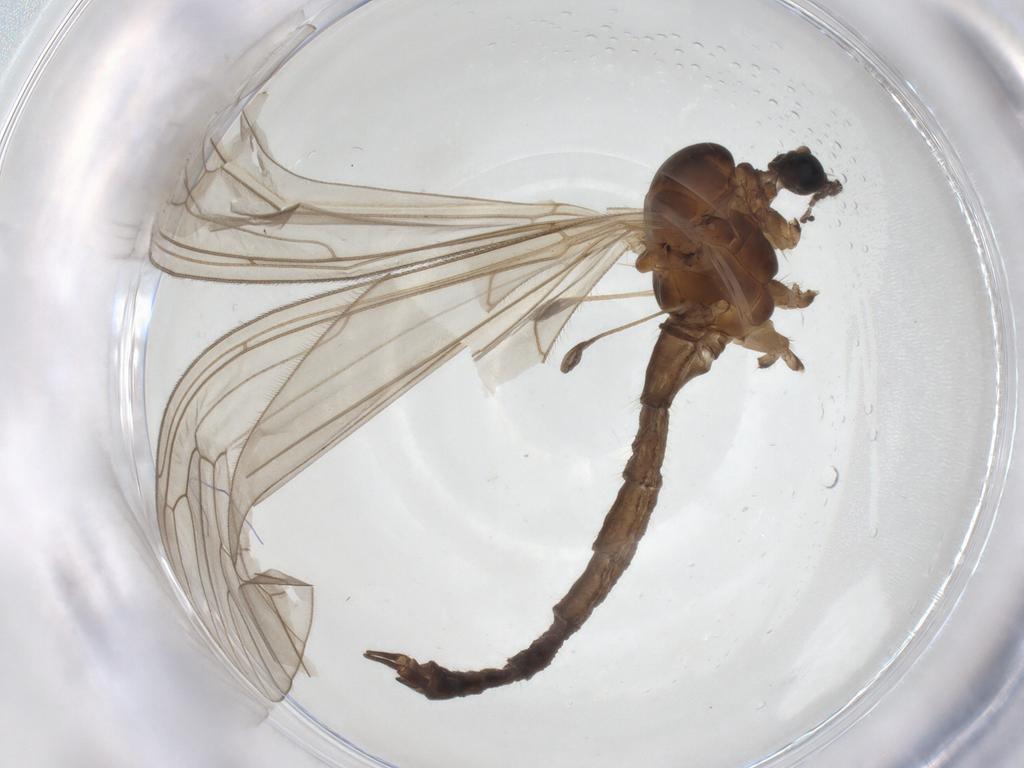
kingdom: Animalia
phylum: Arthropoda
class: Insecta
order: Diptera
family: Trichoceridae
